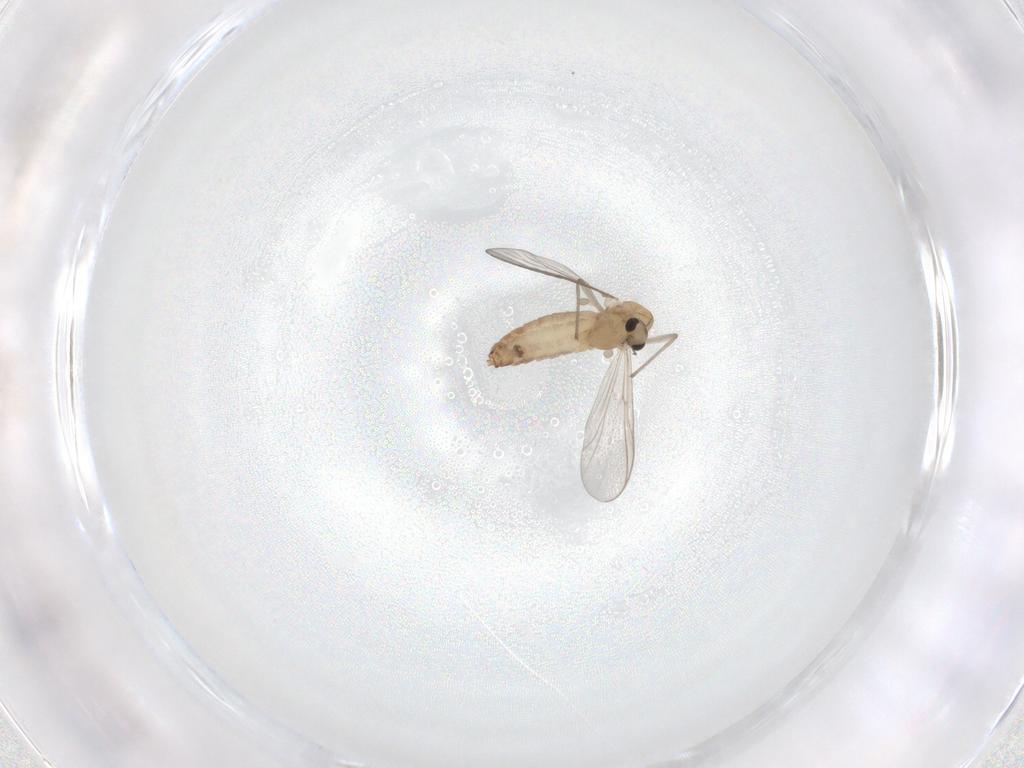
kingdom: Animalia
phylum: Arthropoda
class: Insecta
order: Diptera
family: Chironomidae
